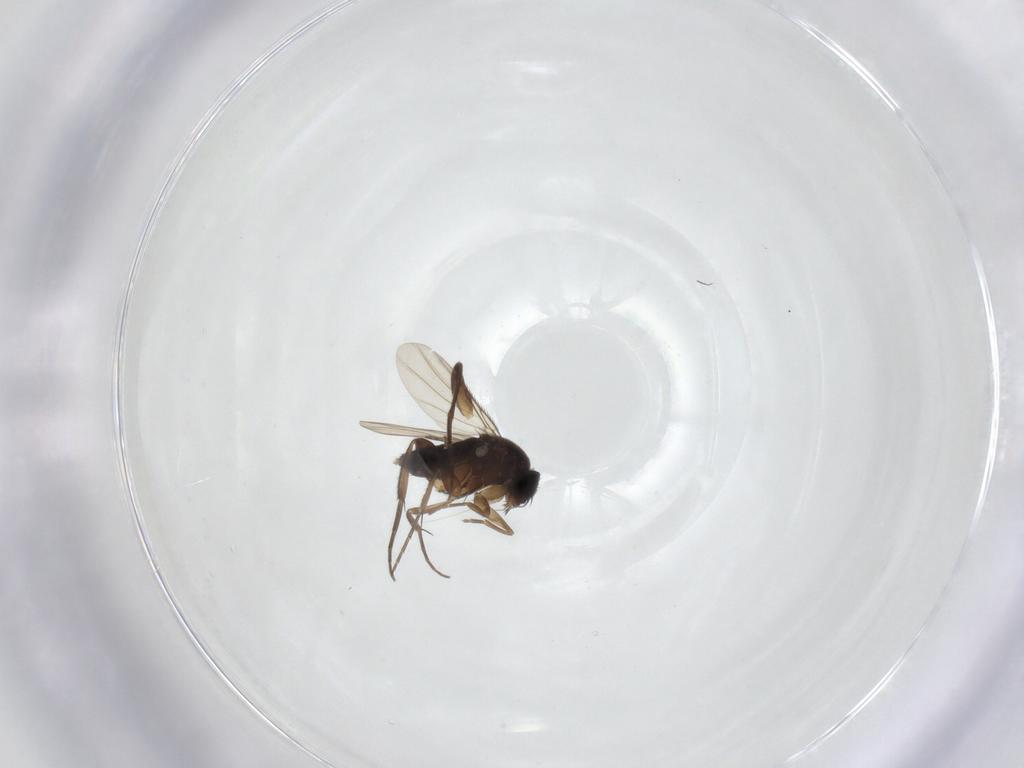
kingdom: Animalia
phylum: Arthropoda
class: Insecta
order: Diptera
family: Phoridae
